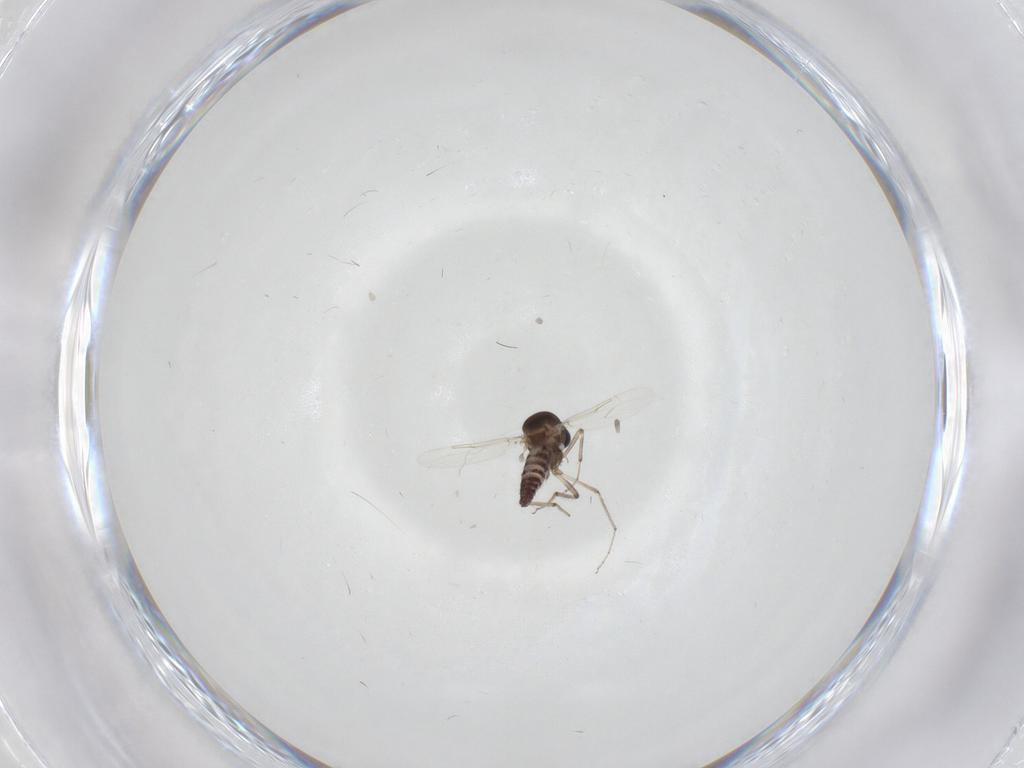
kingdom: Animalia
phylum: Arthropoda
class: Insecta
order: Diptera
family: Ceratopogonidae
